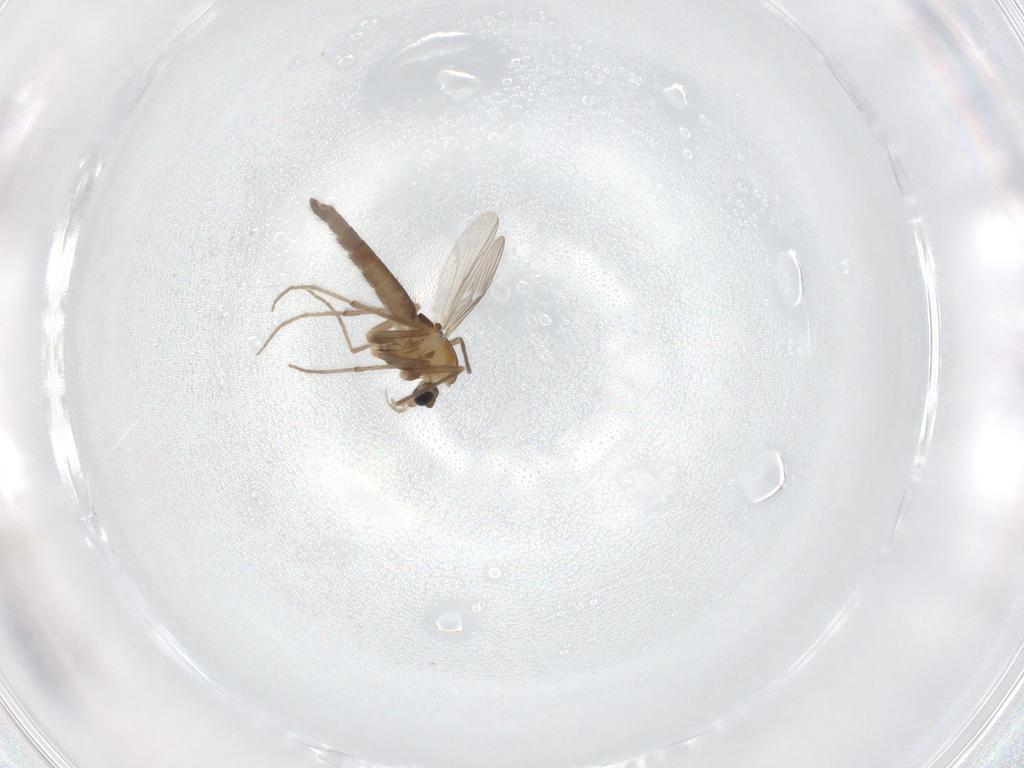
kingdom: Animalia
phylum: Arthropoda
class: Insecta
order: Diptera
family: Chironomidae
